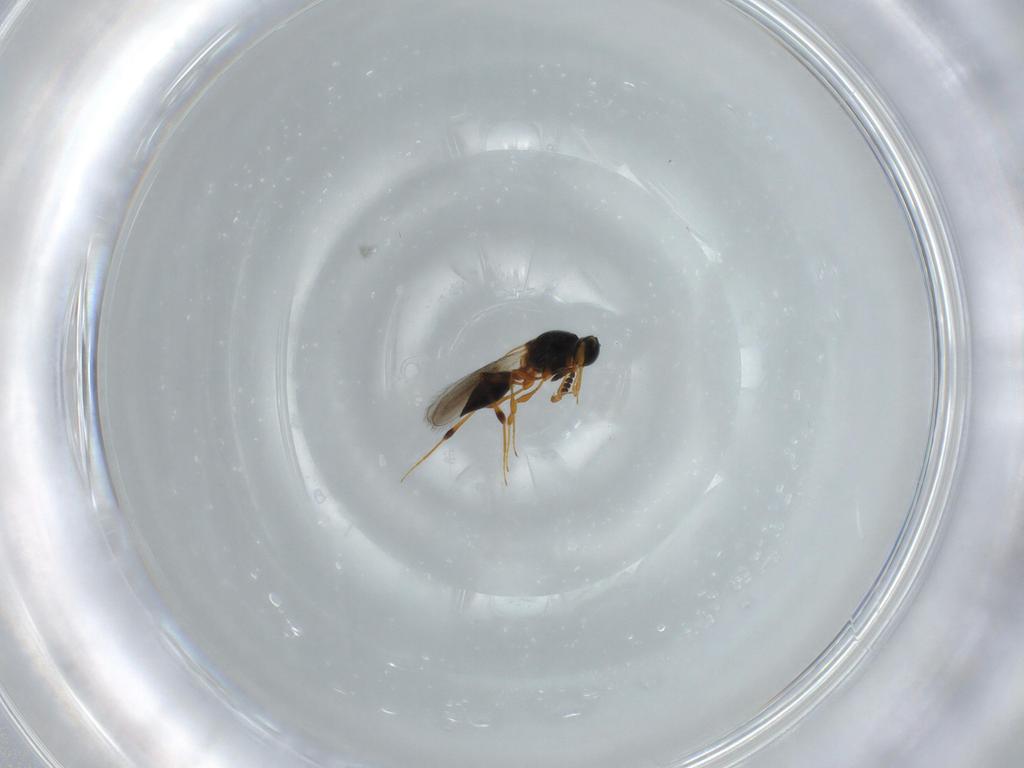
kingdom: Animalia
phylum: Arthropoda
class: Insecta
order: Hymenoptera
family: Platygastridae
